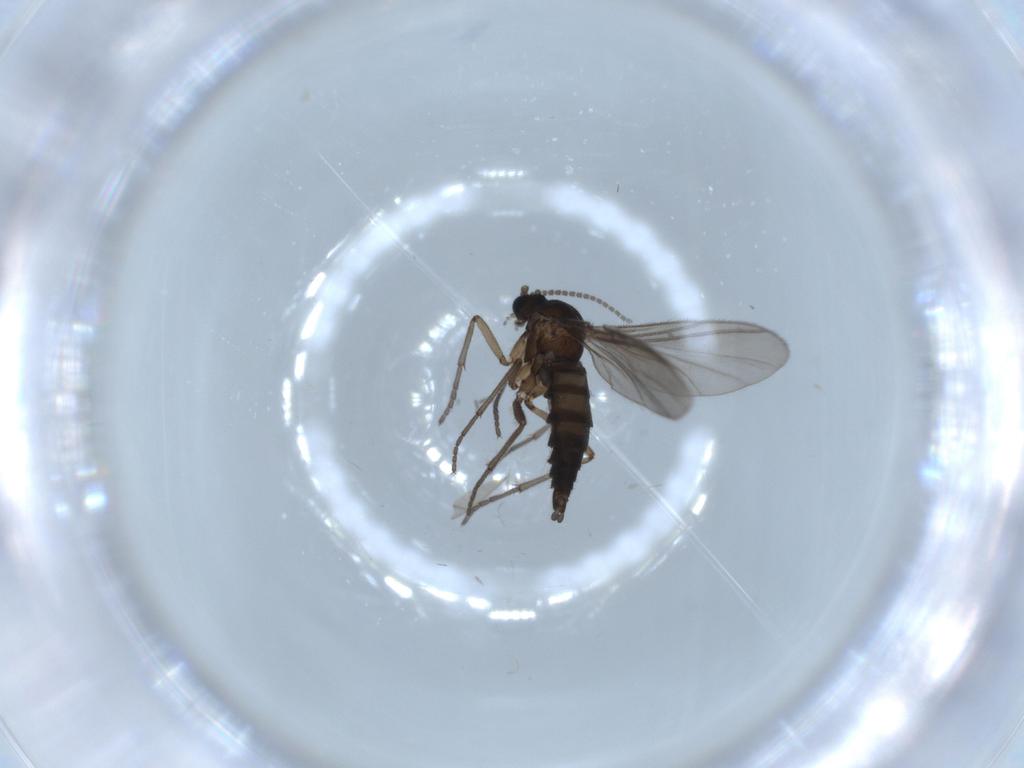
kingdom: Animalia
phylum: Arthropoda
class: Insecta
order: Diptera
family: Sciaridae
